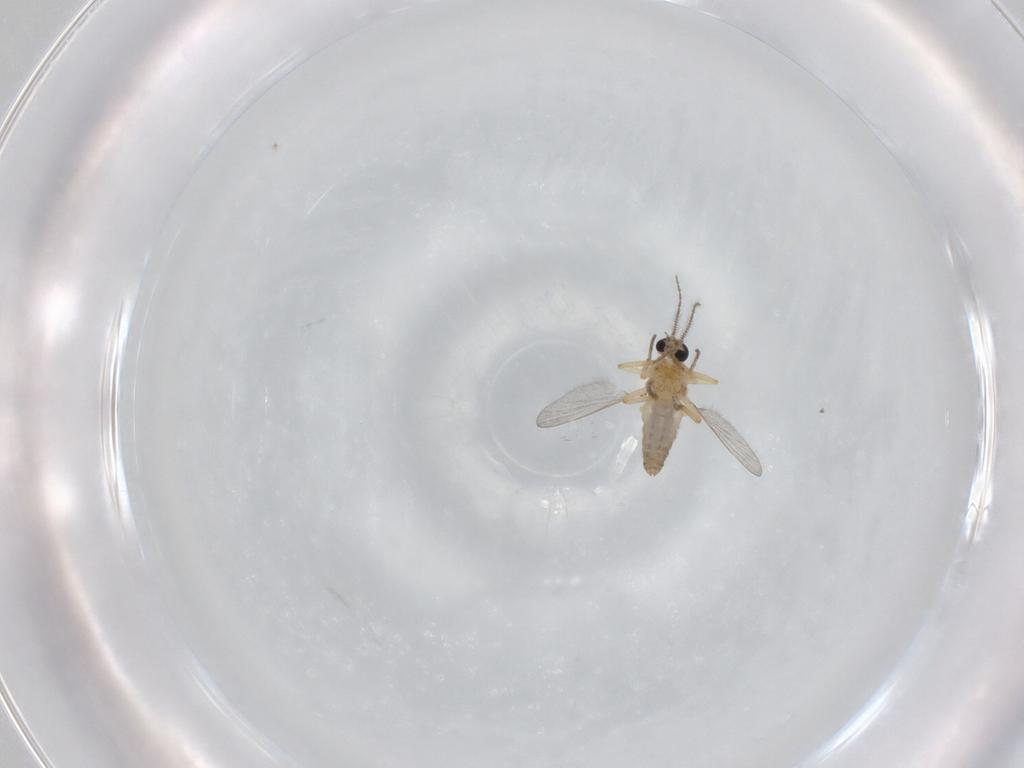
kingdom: Animalia
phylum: Arthropoda
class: Insecta
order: Diptera
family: Ceratopogonidae
